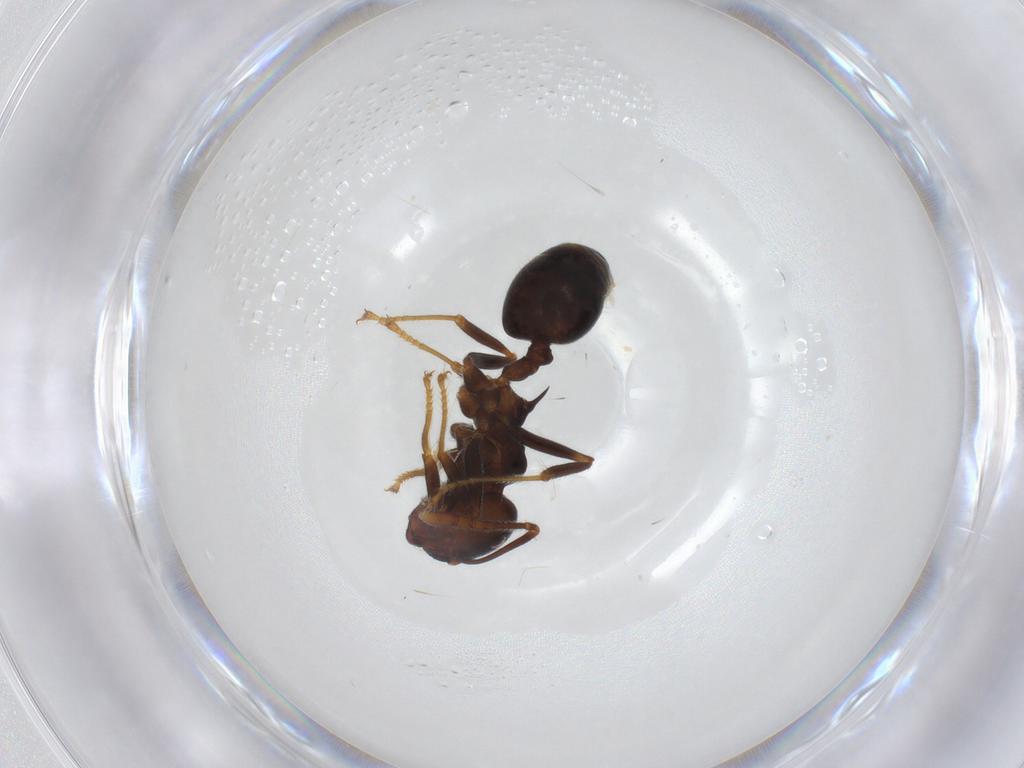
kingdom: Animalia
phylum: Arthropoda
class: Insecta
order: Hymenoptera
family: Formicidae
